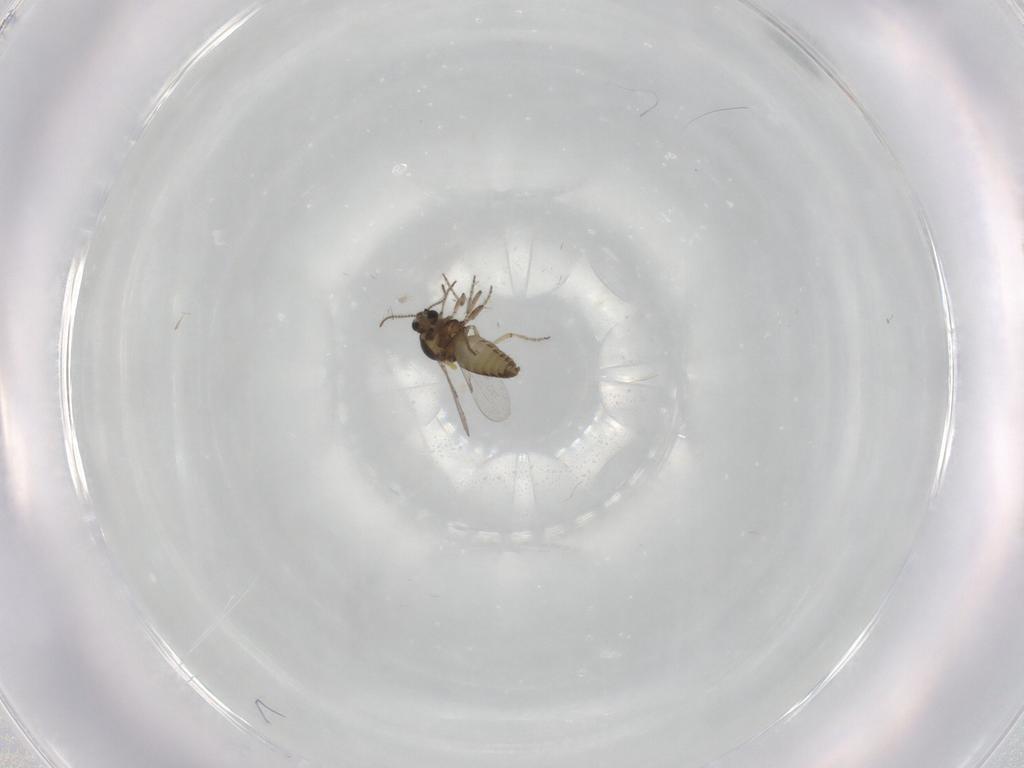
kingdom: Animalia
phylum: Arthropoda
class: Insecta
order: Diptera
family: Ceratopogonidae
